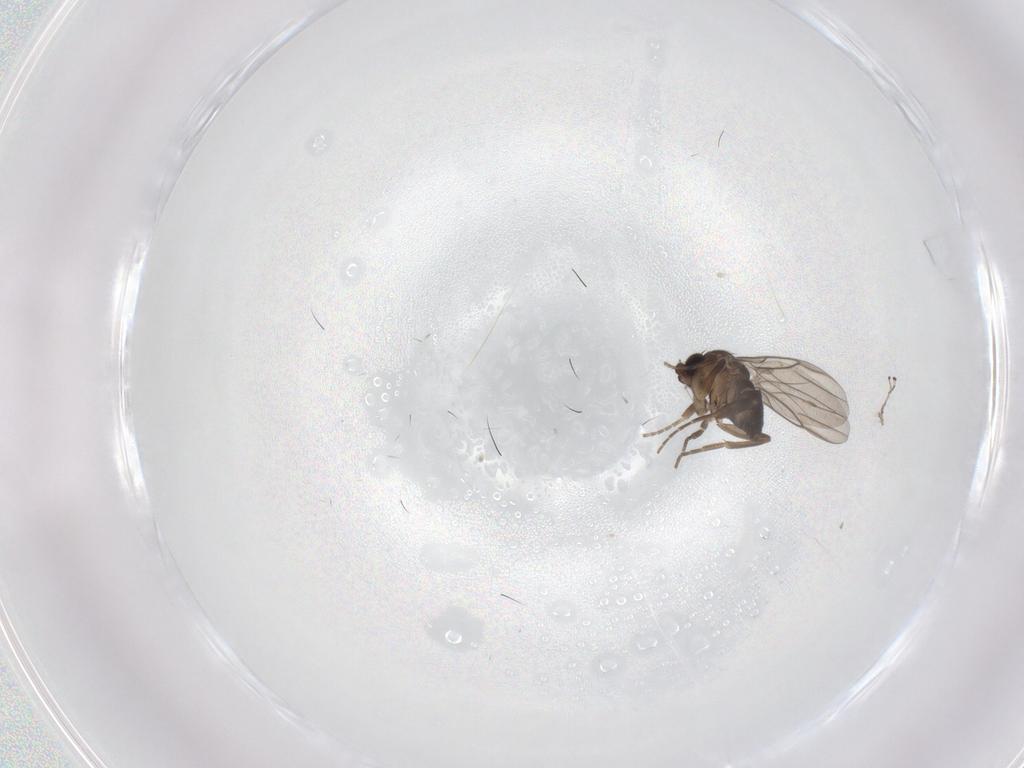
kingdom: Animalia
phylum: Arthropoda
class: Insecta
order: Diptera
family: Phoridae
